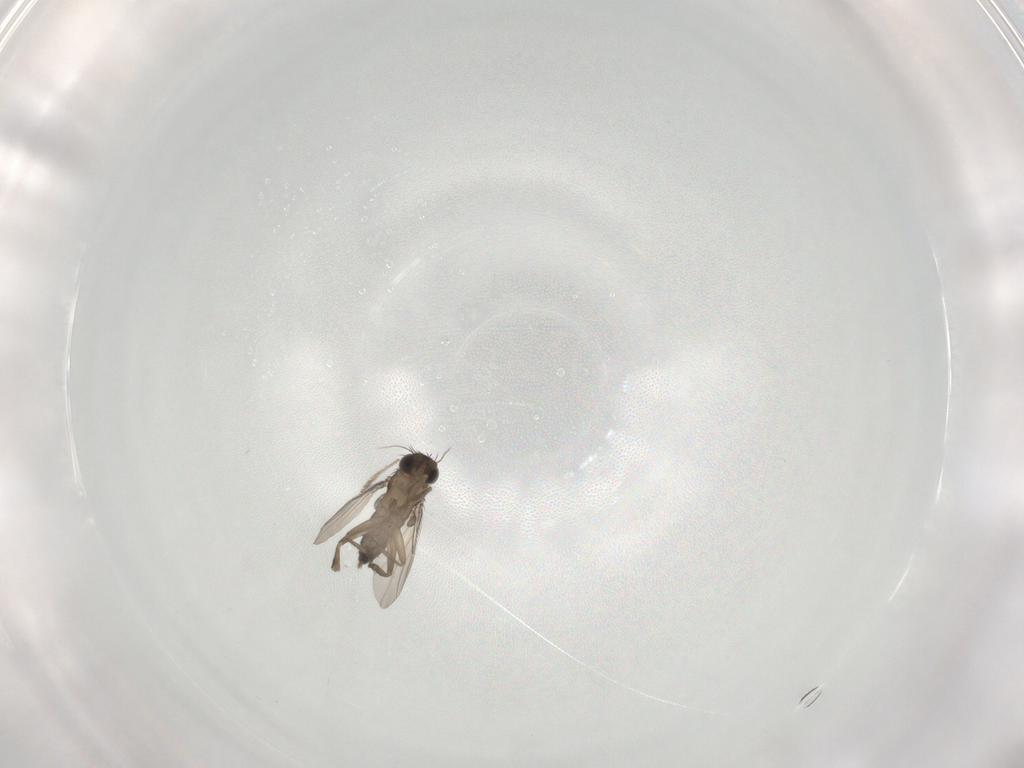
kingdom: Animalia
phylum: Arthropoda
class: Insecta
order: Diptera
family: Phoridae
